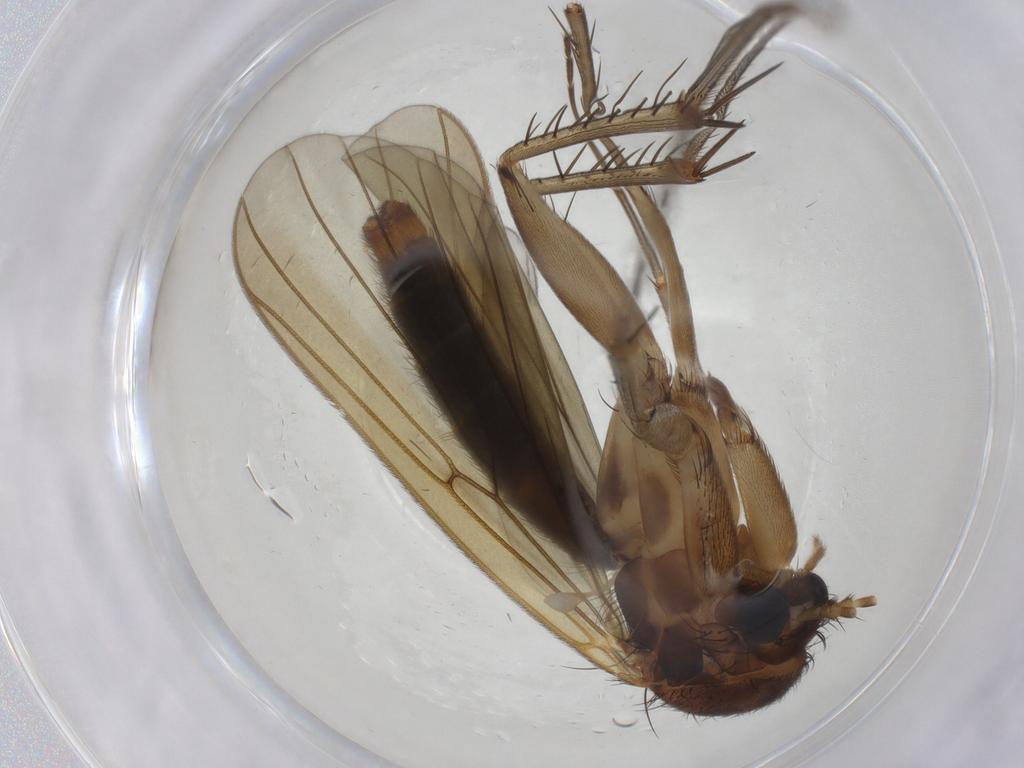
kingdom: Animalia
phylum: Arthropoda
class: Insecta
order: Diptera
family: Mycetophilidae
